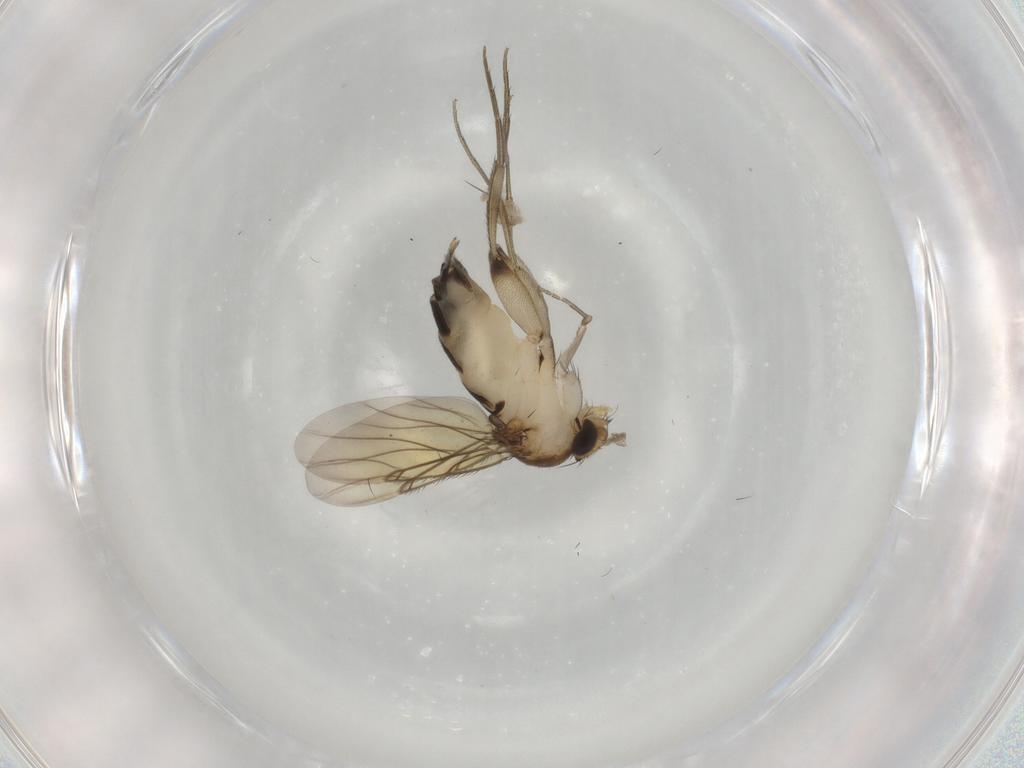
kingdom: Animalia
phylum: Arthropoda
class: Insecta
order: Diptera
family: Phoridae
